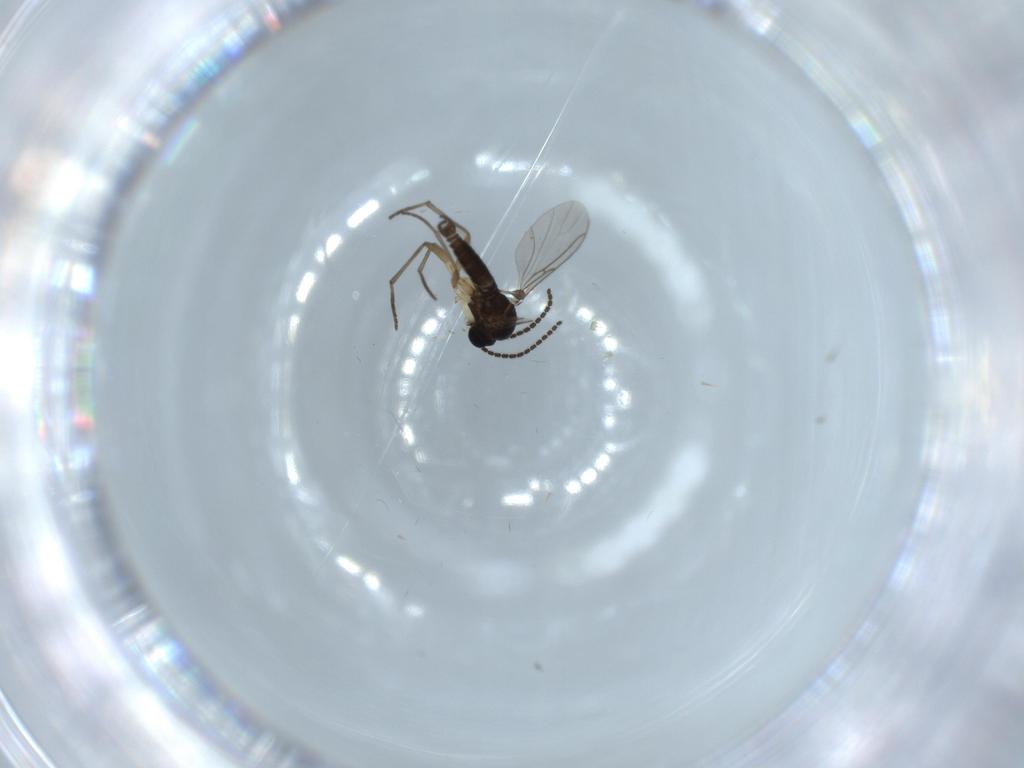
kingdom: Animalia
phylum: Arthropoda
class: Insecta
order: Diptera
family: Sciaridae
